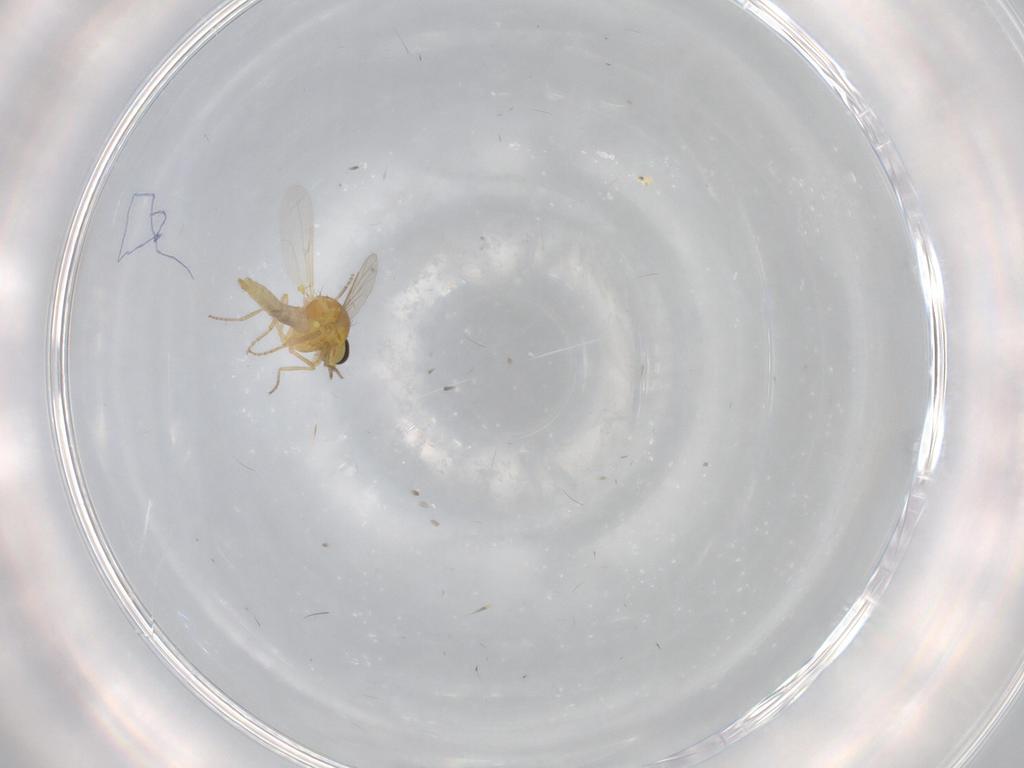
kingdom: Animalia
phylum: Arthropoda
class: Insecta
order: Diptera
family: Ceratopogonidae
